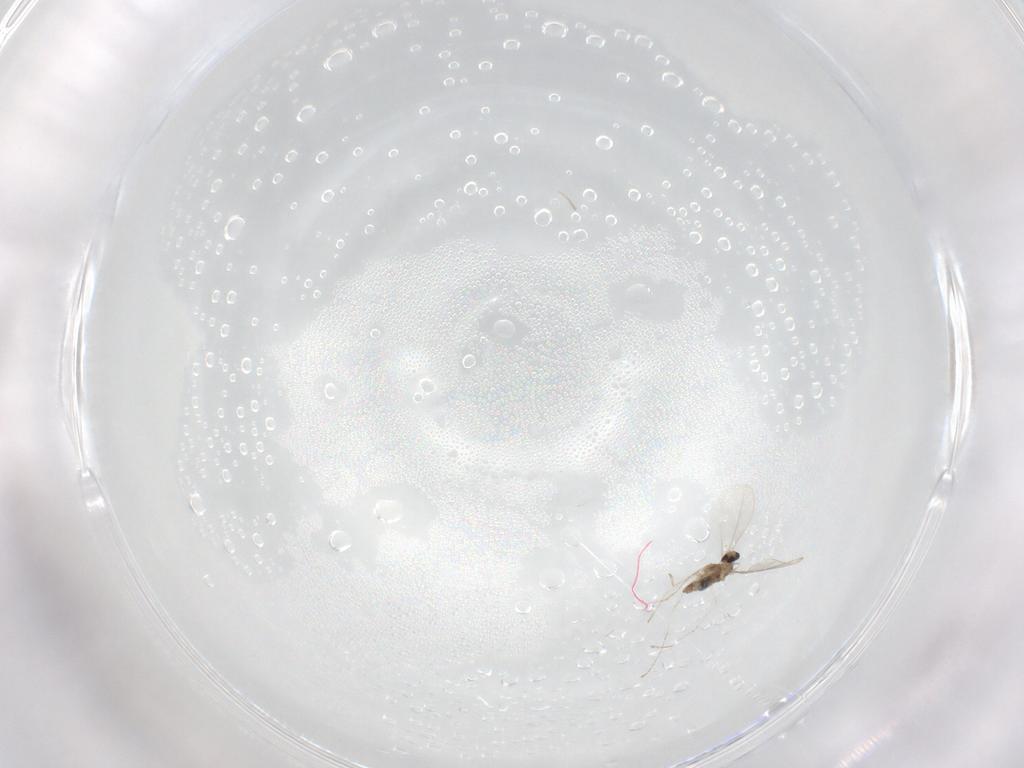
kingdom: Animalia
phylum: Arthropoda
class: Insecta
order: Diptera
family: Cecidomyiidae
